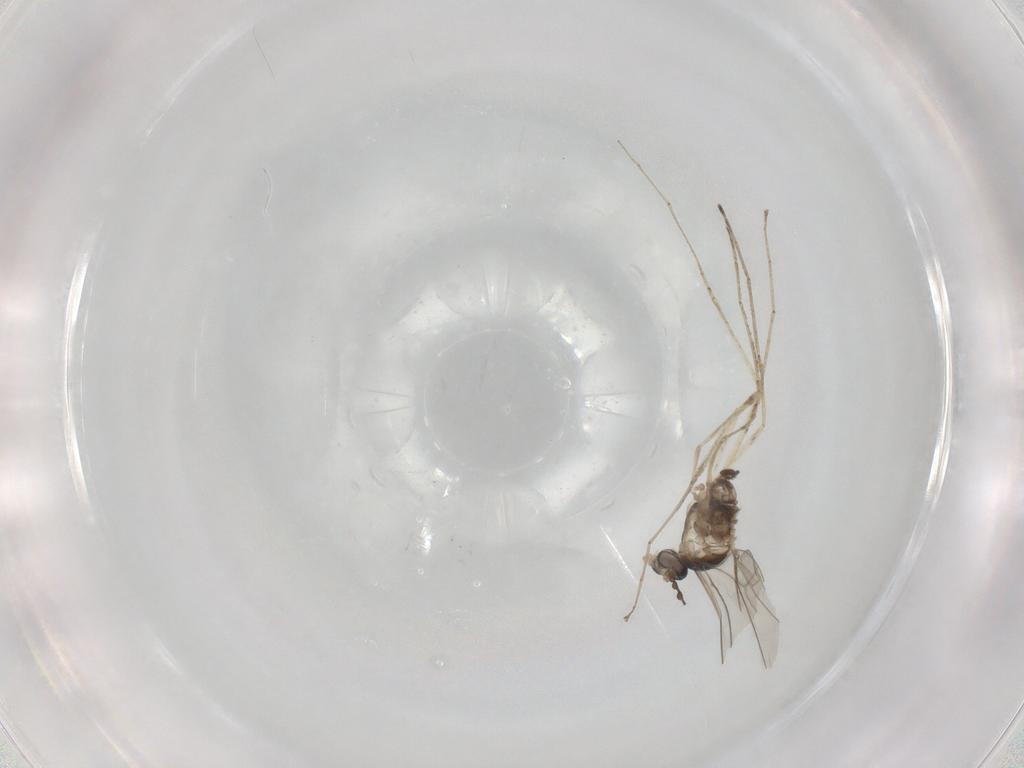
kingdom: Animalia
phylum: Arthropoda
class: Insecta
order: Diptera
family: Cecidomyiidae
